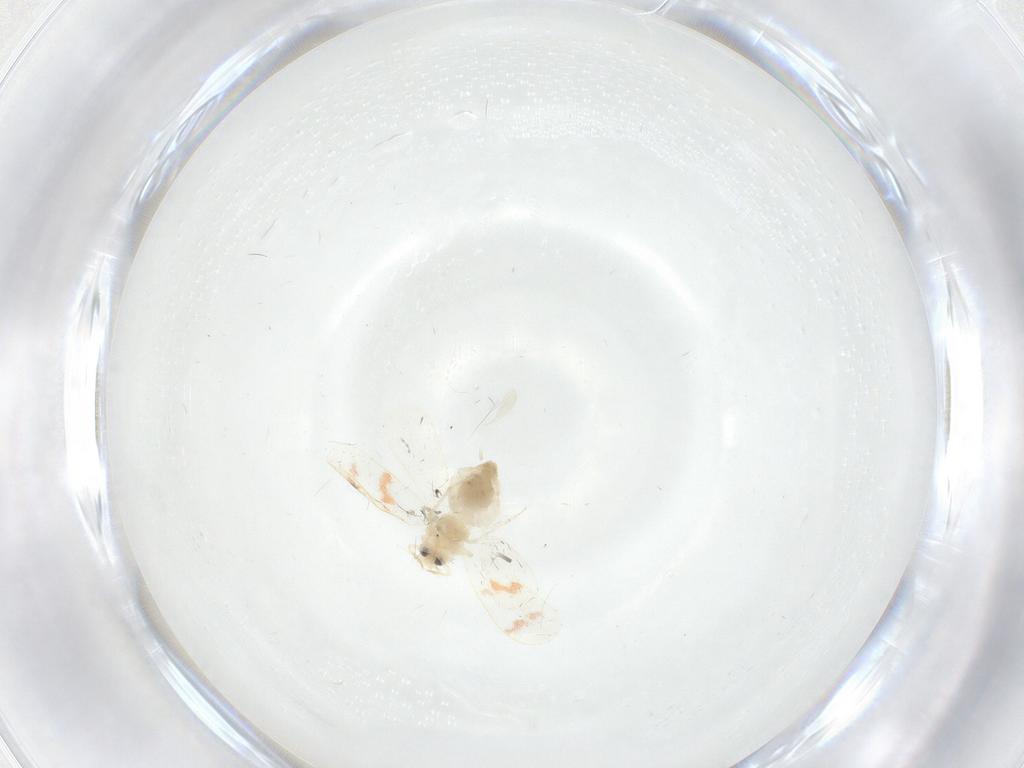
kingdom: Animalia
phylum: Arthropoda
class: Insecta
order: Hemiptera
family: Aleyrodidae
